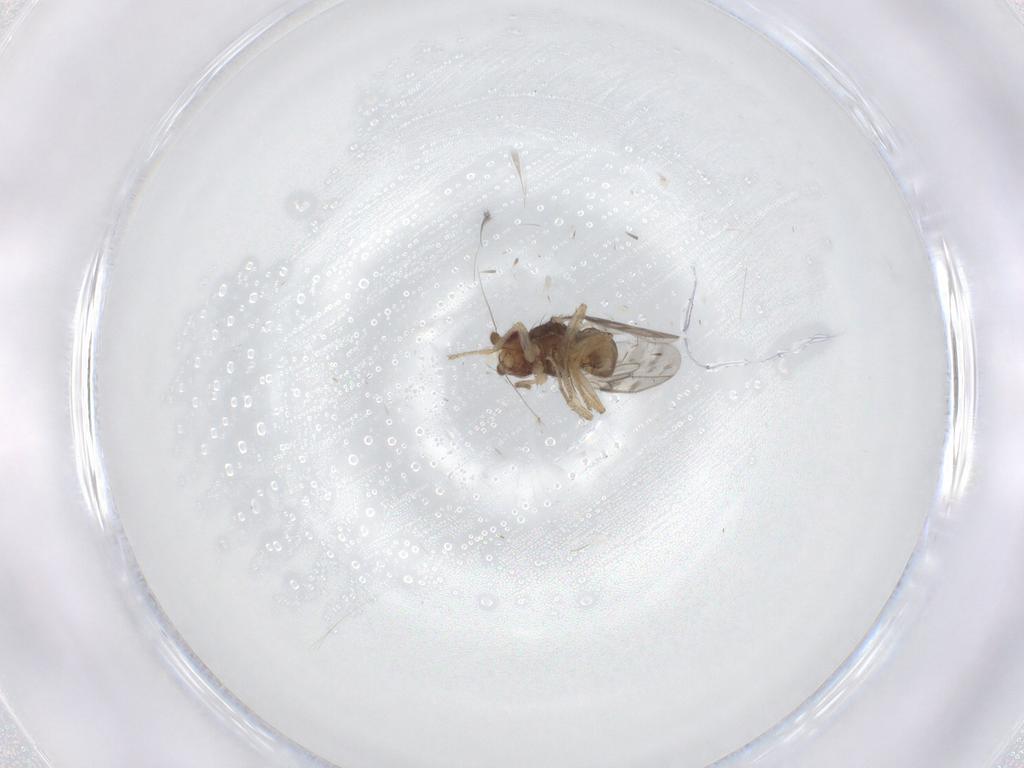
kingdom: Animalia
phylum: Arthropoda
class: Insecta
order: Diptera
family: Sphaeroceridae
